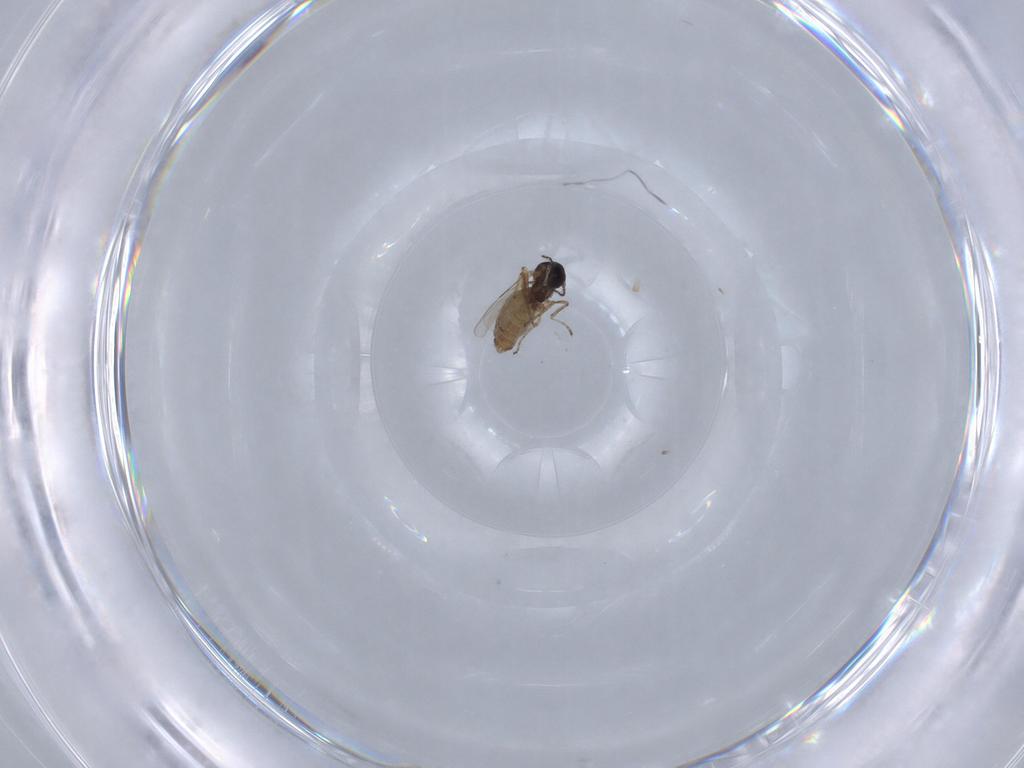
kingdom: Animalia
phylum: Arthropoda
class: Insecta
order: Diptera
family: Ceratopogonidae
